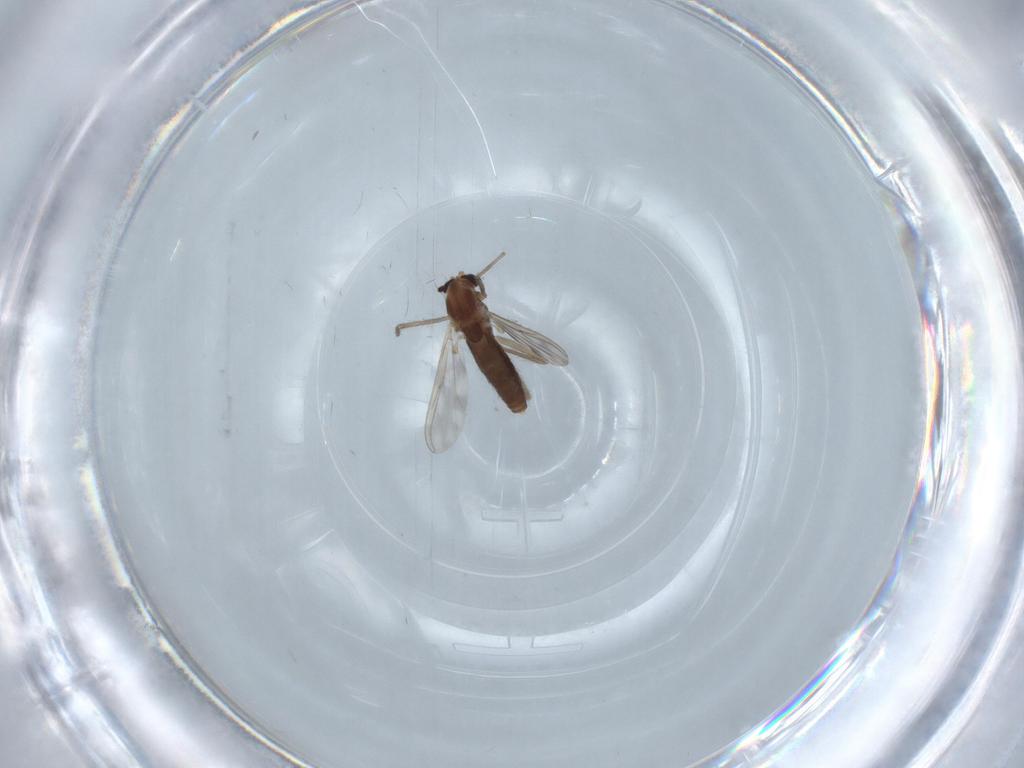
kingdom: Animalia
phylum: Arthropoda
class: Insecta
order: Diptera
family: Chironomidae
